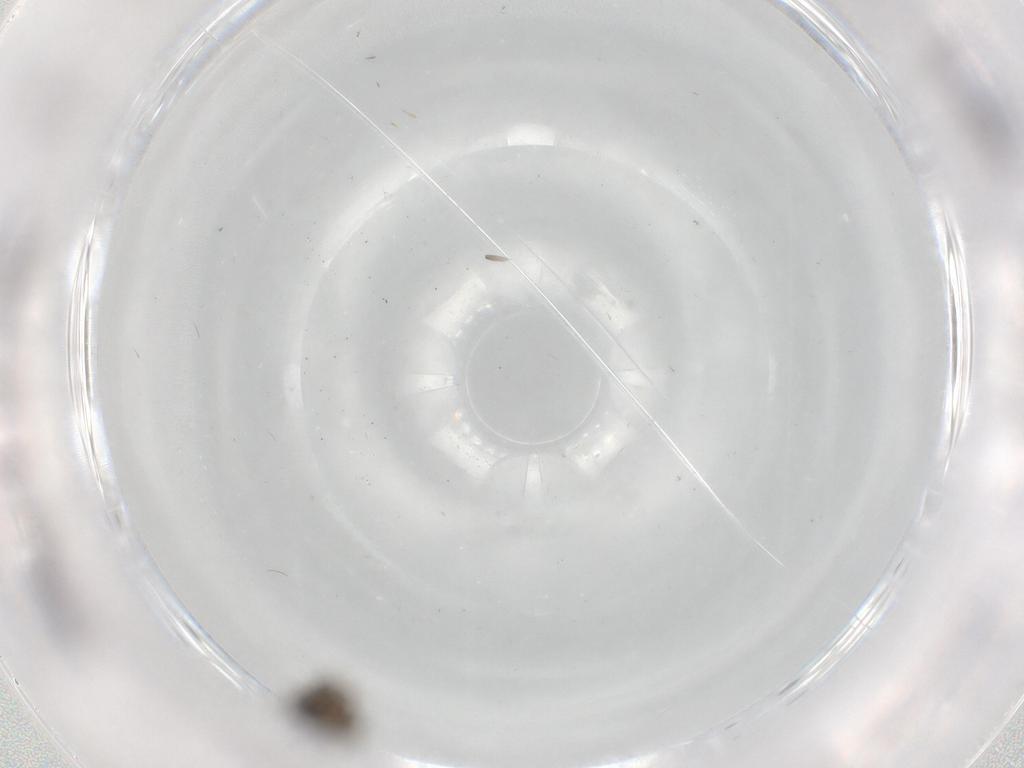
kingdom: Animalia
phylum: Arthropoda
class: Insecta
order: Diptera
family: Psychodidae
